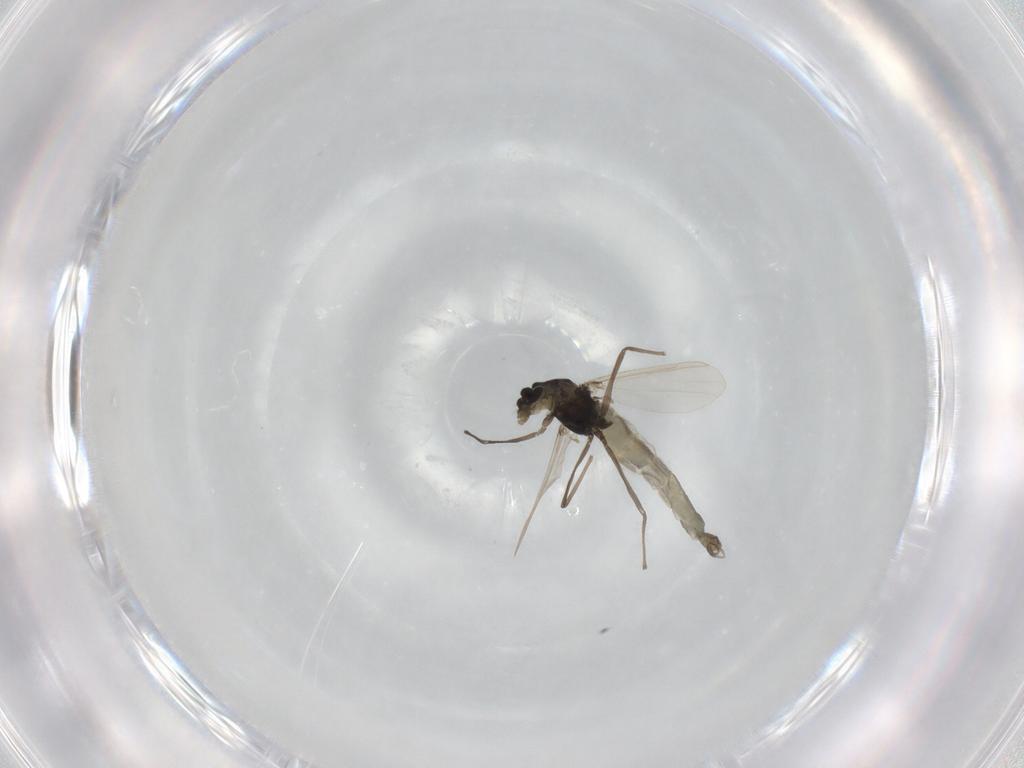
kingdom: Animalia
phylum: Arthropoda
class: Insecta
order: Diptera
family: Chironomidae
